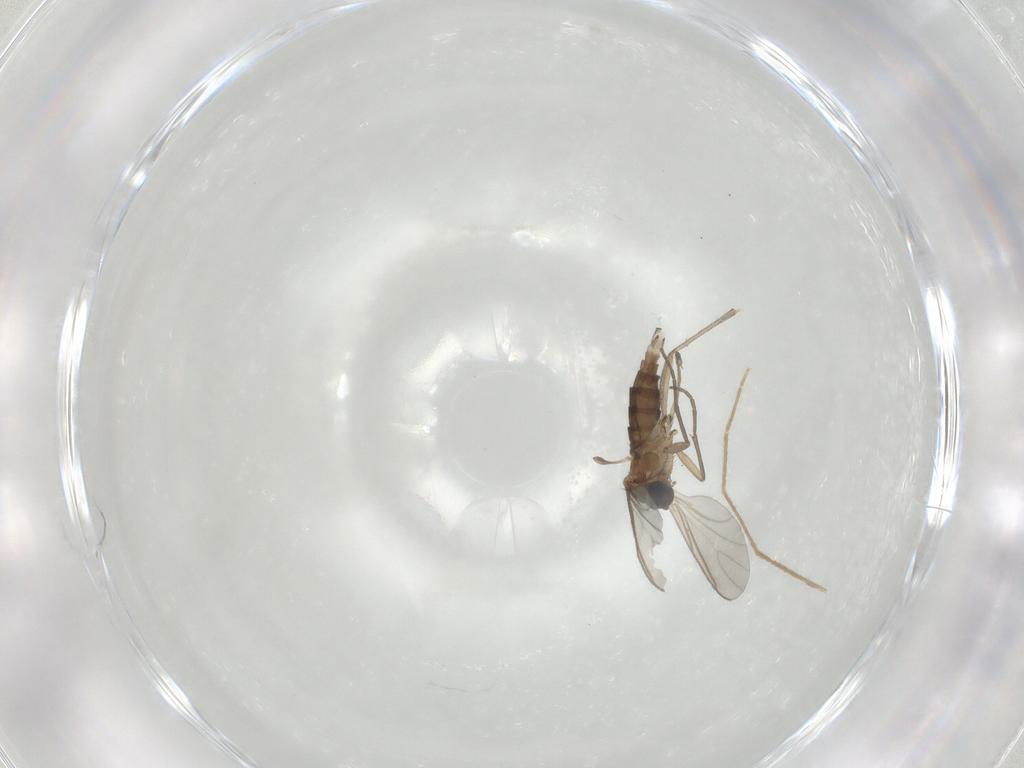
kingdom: Animalia
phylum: Arthropoda
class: Insecta
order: Diptera
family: Sciaridae
